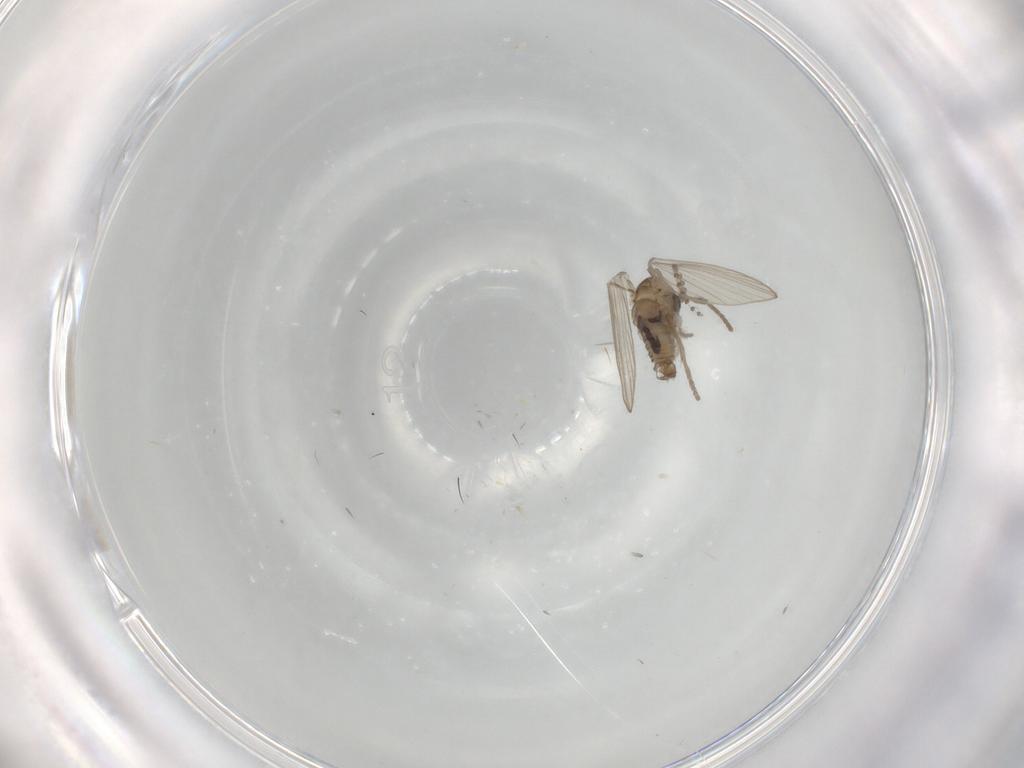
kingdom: Animalia
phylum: Arthropoda
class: Insecta
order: Diptera
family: Psychodidae
